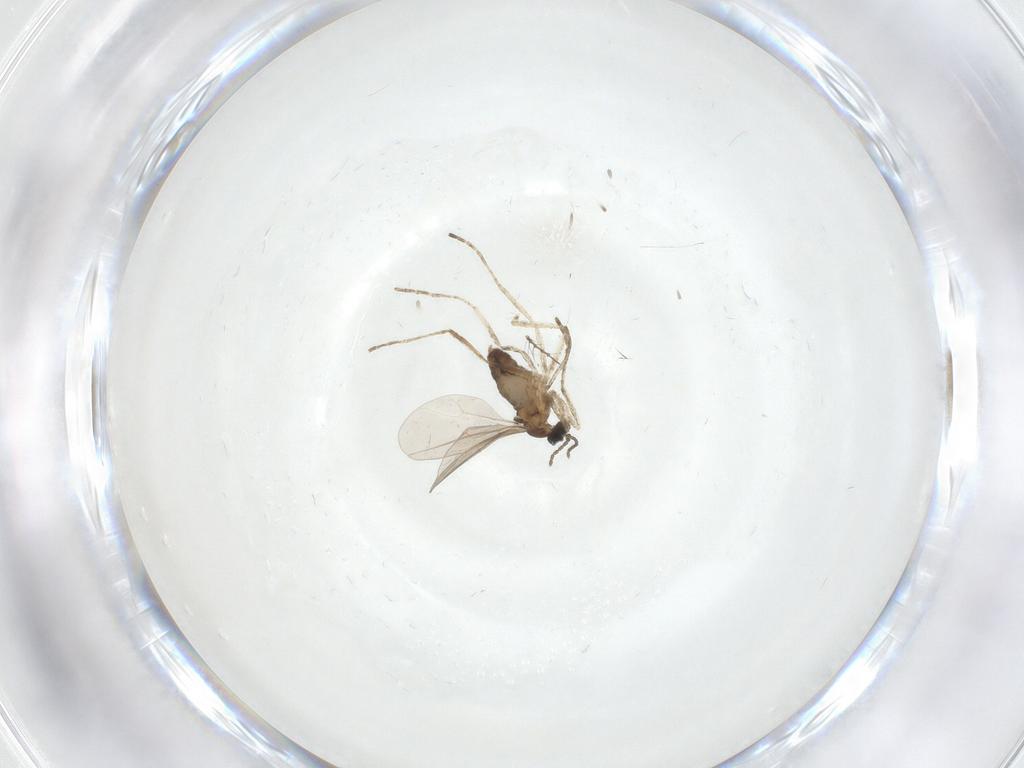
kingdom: Animalia
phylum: Arthropoda
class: Insecta
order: Diptera
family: Cecidomyiidae
